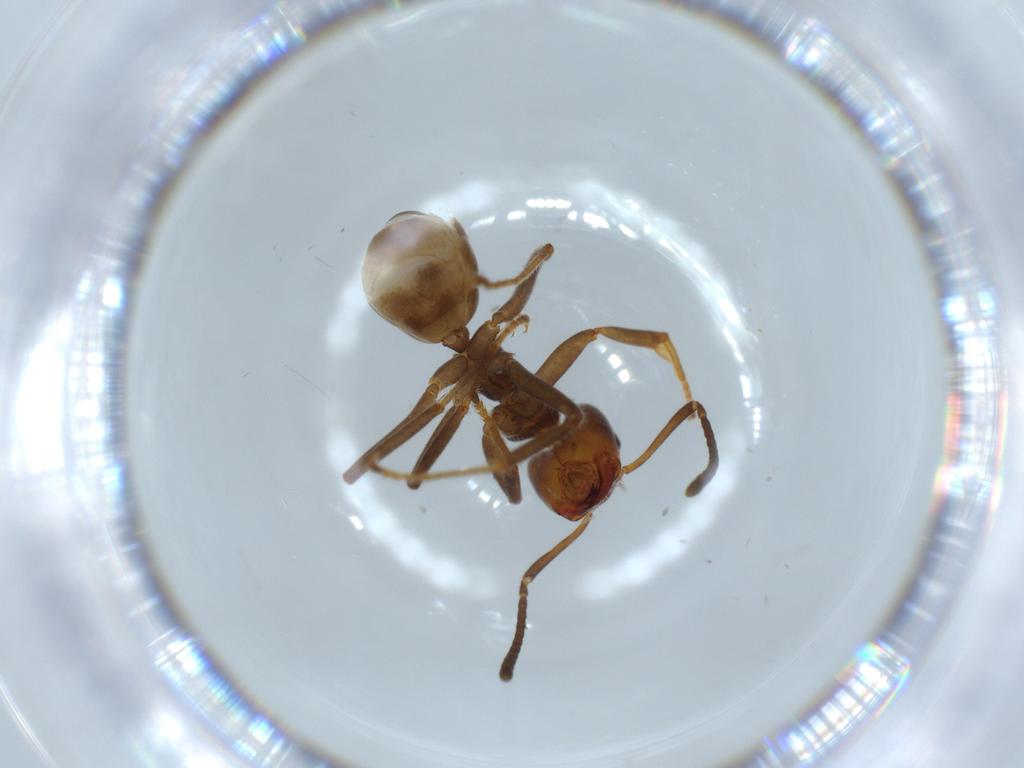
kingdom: Animalia
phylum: Arthropoda
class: Insecta
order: Hymenoptera
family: Formicidae
